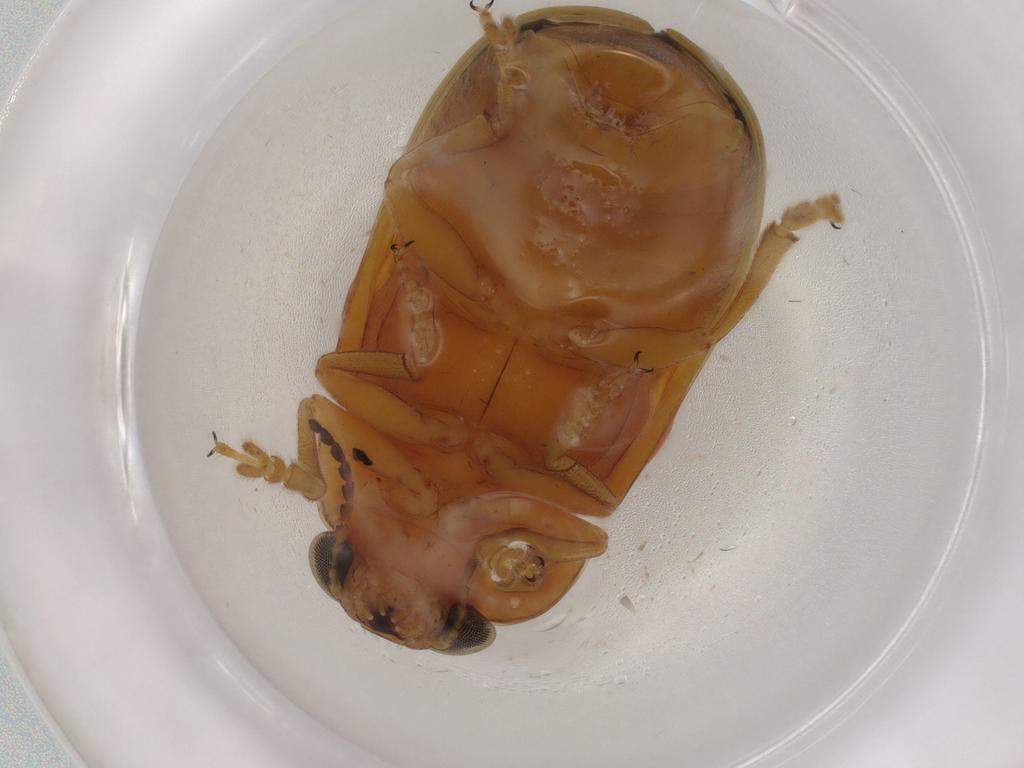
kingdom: Animalia
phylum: Arthropoda
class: Insecta
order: Coleoptera
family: Chrysomelidae
